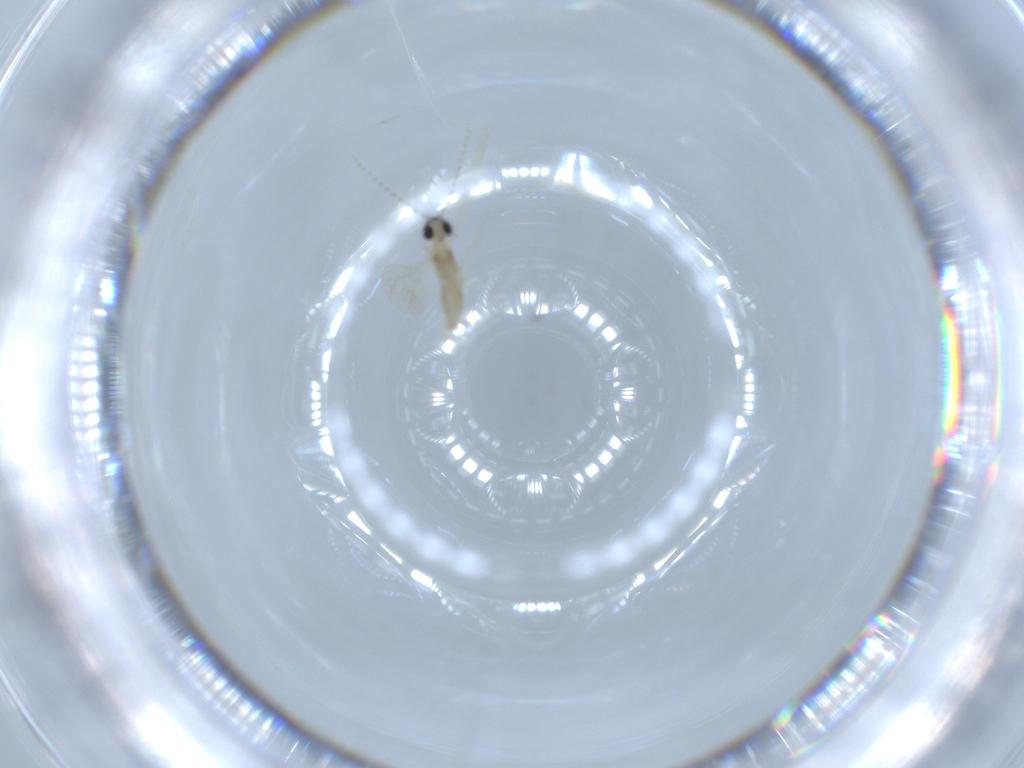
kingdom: Animalia
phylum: Arthropoda
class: Insecta
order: Diptera
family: Cecidomyiidae
